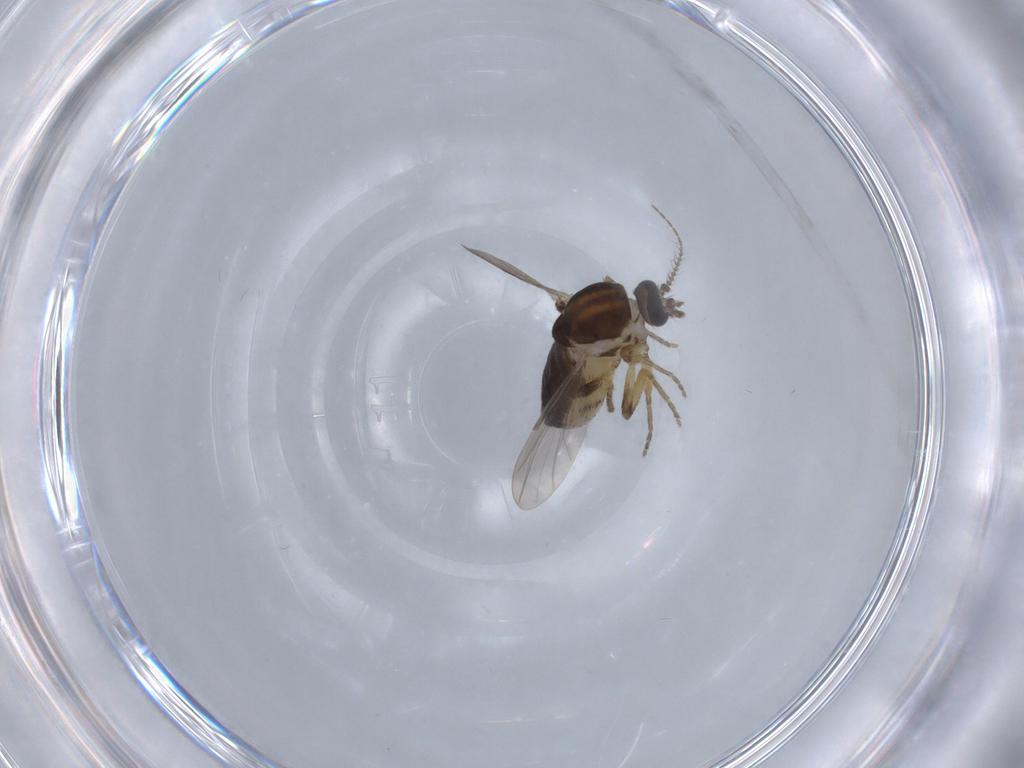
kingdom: Animalia
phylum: Arthropoda
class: Insecta
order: Diptera
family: Ceratopogonidae
